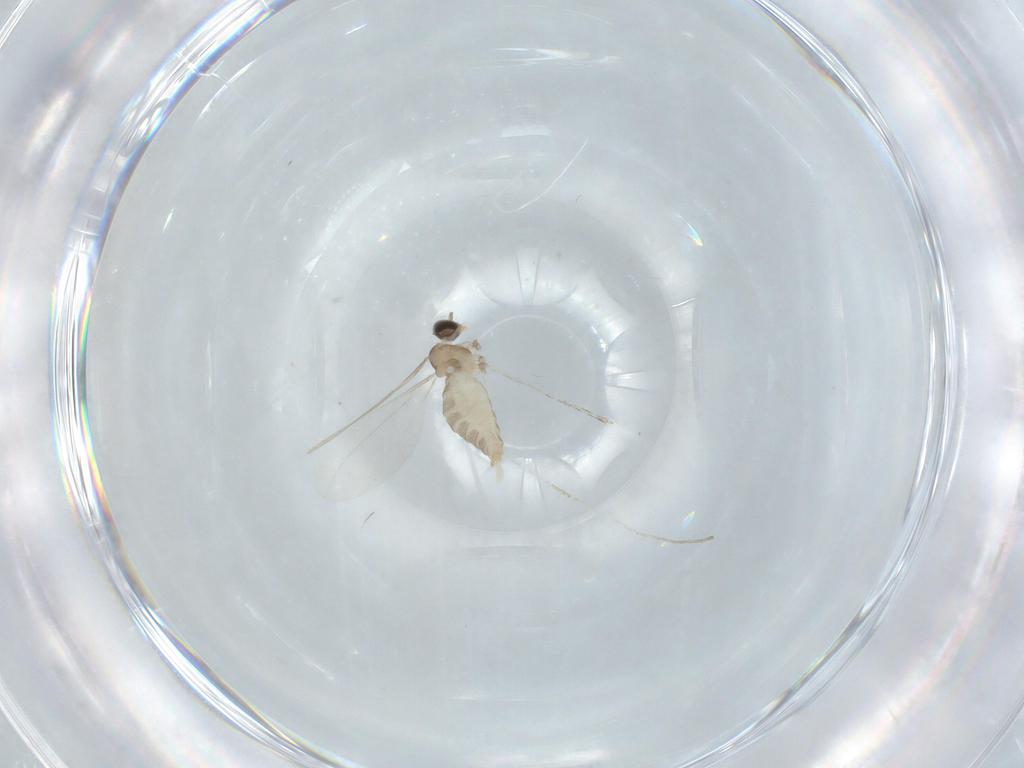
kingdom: Animalia
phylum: Arthropoda
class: Insecta
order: Diptera
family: Cecidomyiidae
